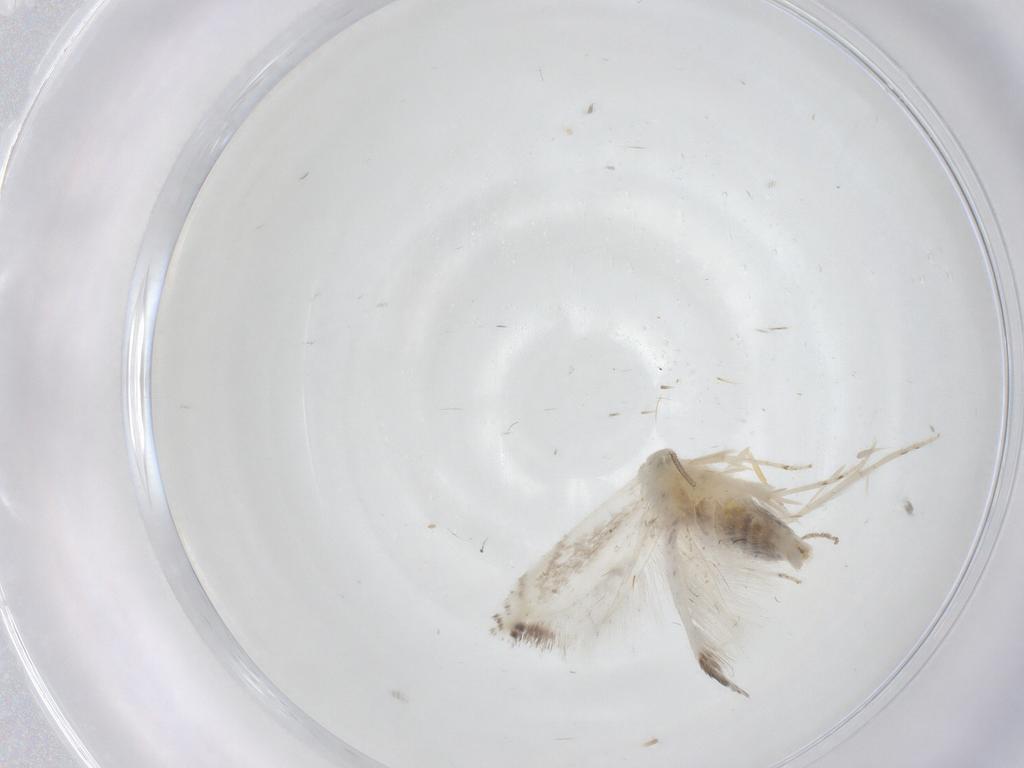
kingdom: Animalia
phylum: Arthropoda
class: Insecta
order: Lepidoptera
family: Gelechiidae
